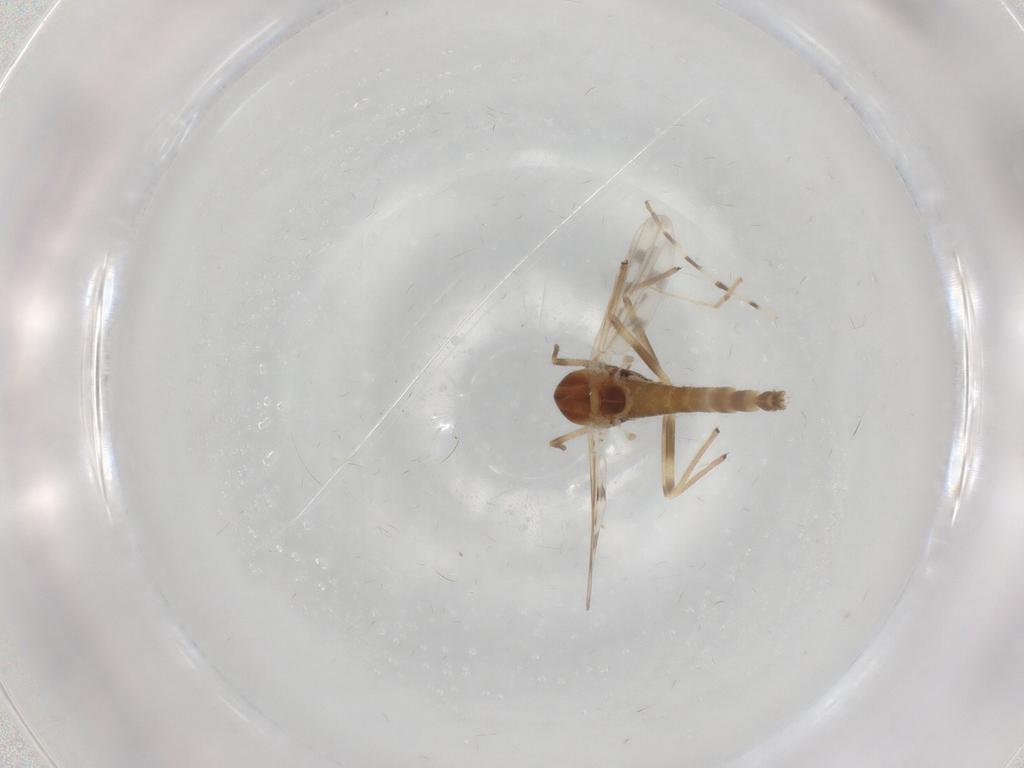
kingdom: Animalia
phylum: Arthropoda
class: Insecta
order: Diptera
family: Chironomidae
